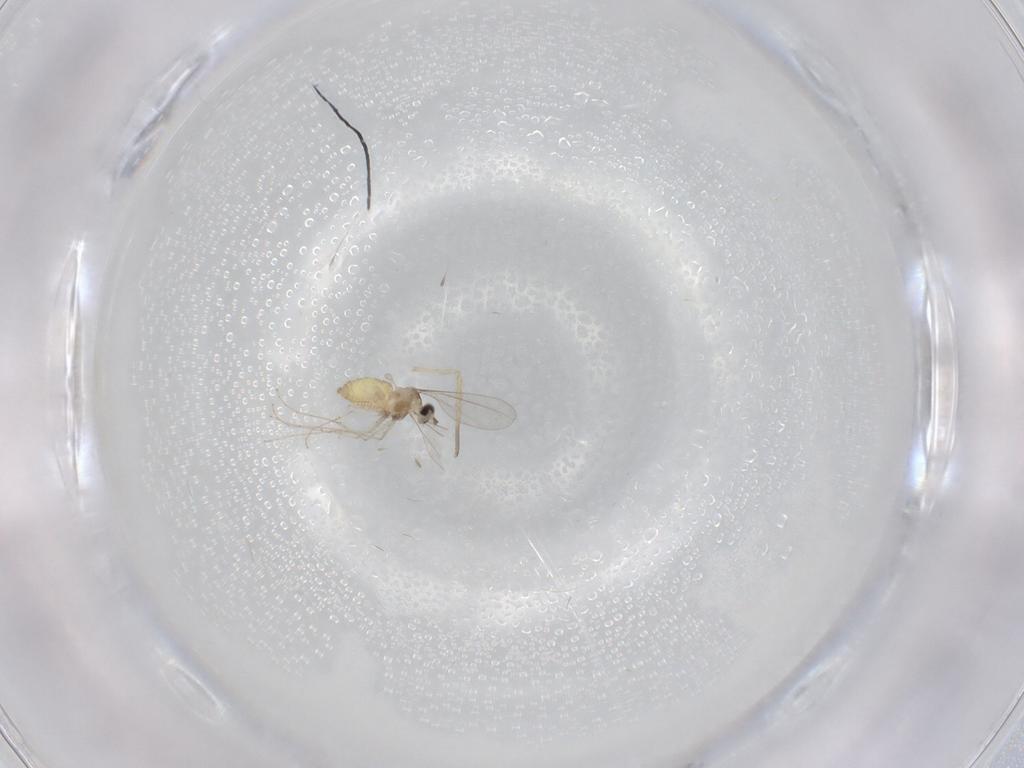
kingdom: Animalia
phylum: Arthropoda
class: Insecta
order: Diptera
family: Cecidomyiidae
